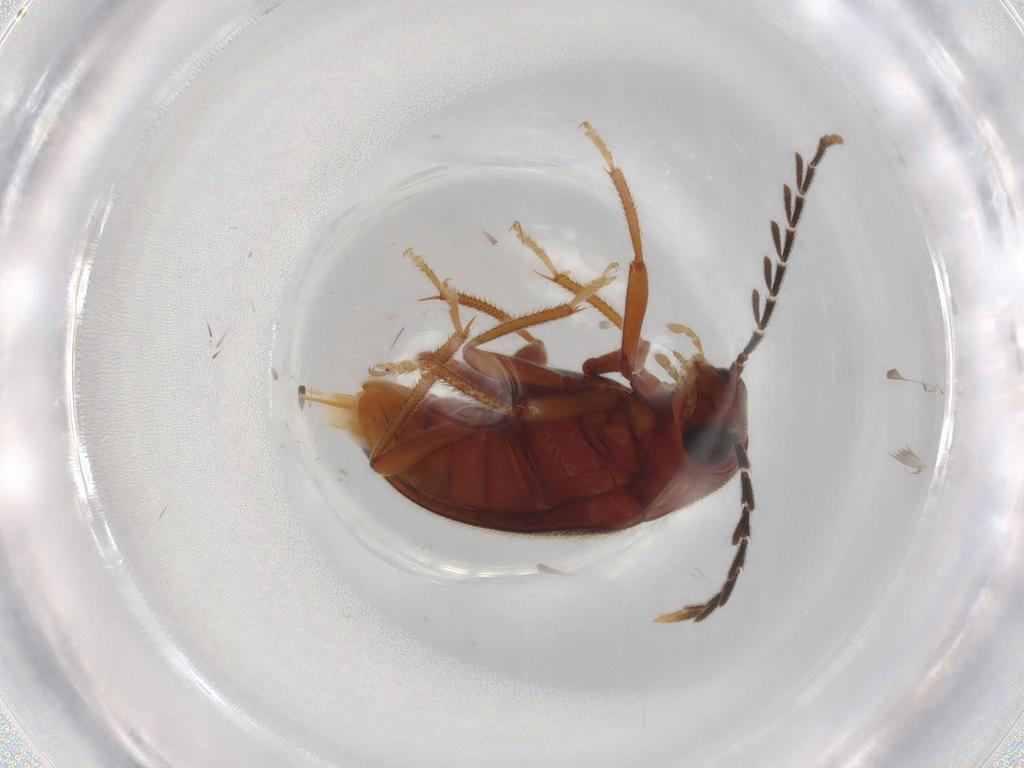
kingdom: Animalia
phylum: Arthropoda
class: Insecta
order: Coleoptera
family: Ptilodactylidae
